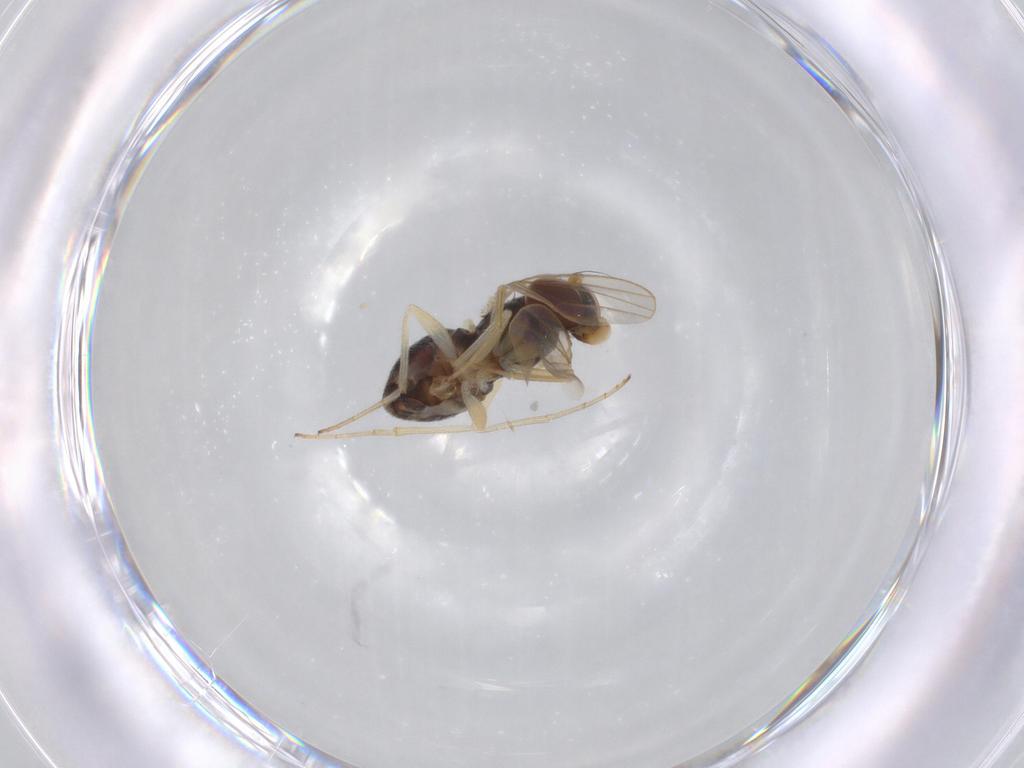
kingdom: Animalia
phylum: Arthropoda
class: Insecta
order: Diptera
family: Dolichopodidae
